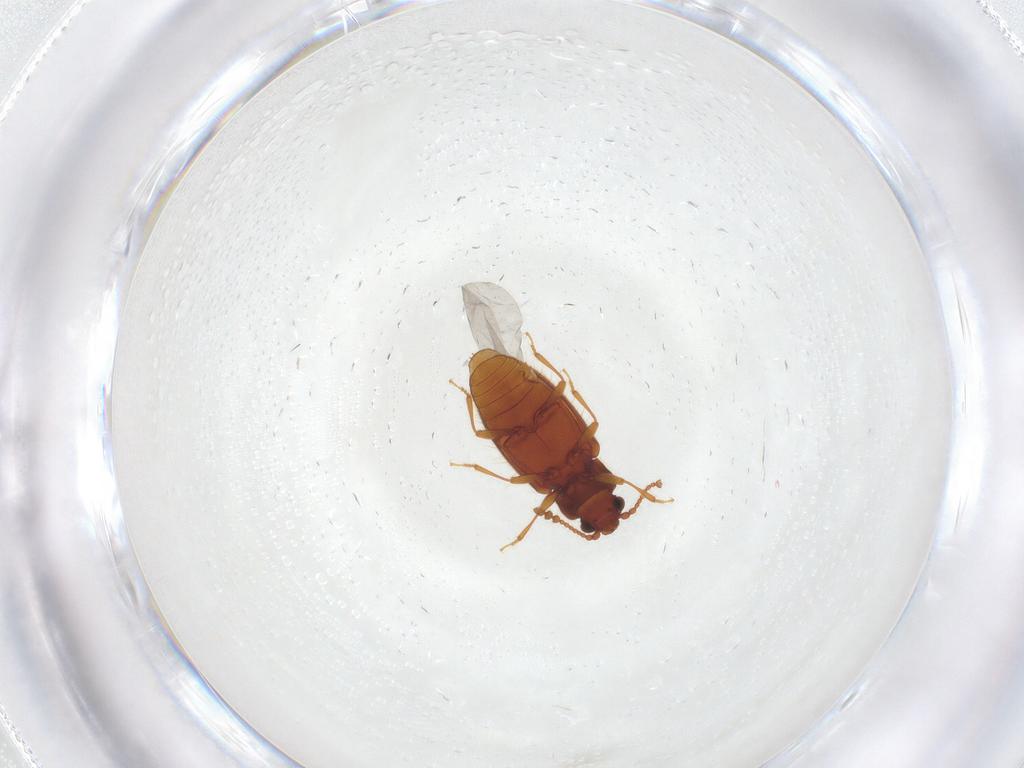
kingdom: Animalia
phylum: Arthropoda
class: Insecta
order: Coleoptera
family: Cryptophagidae
